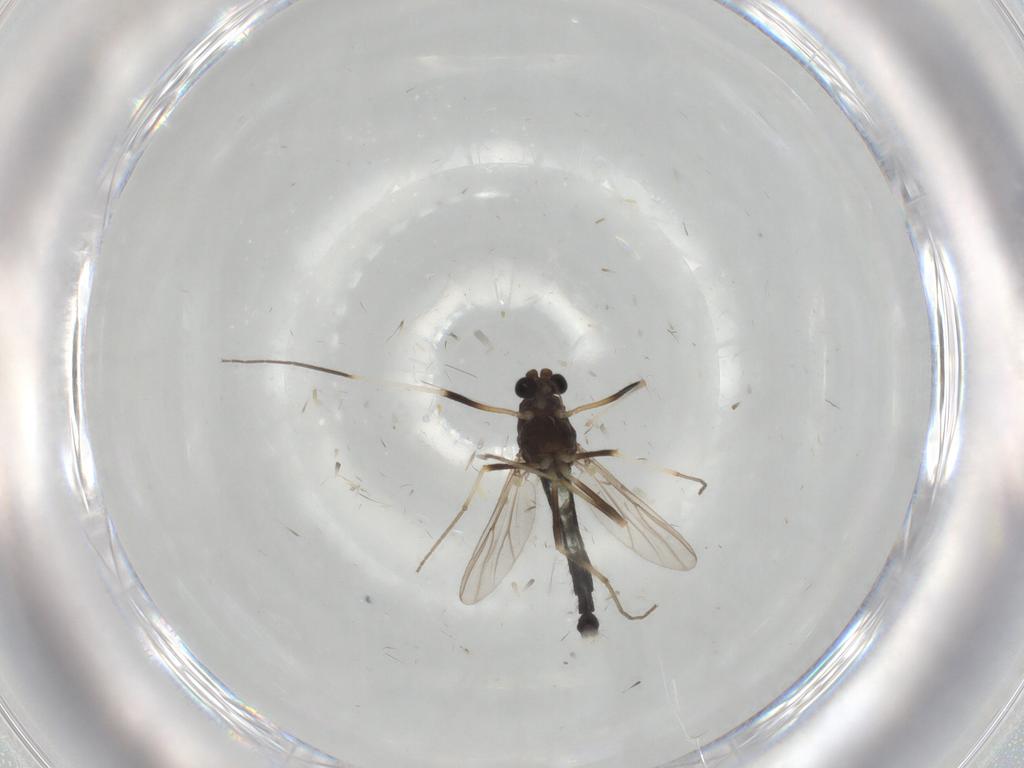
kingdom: Animalia
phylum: Arthropoda
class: Insecta
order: Diptera
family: Chironomidae
